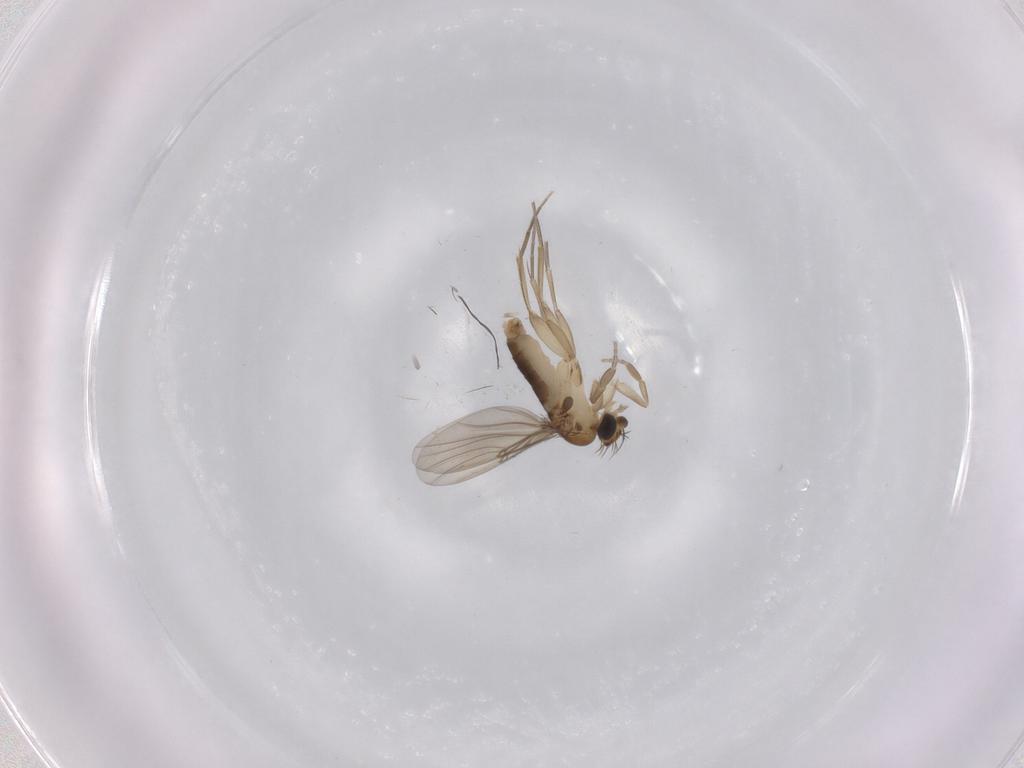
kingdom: Animalia
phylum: Arthropoda
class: Insecta
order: Diptera
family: Phoridae
